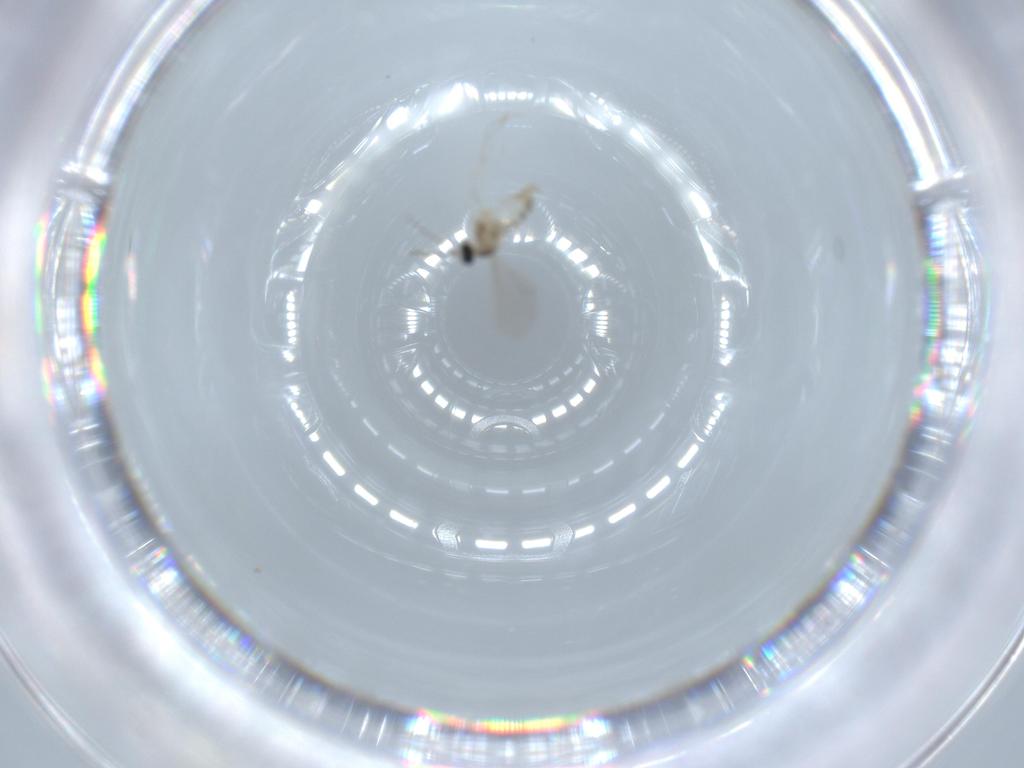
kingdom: Animalia
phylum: Arthropoda
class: Insecta
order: Diptera
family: Cecidomyiidae
